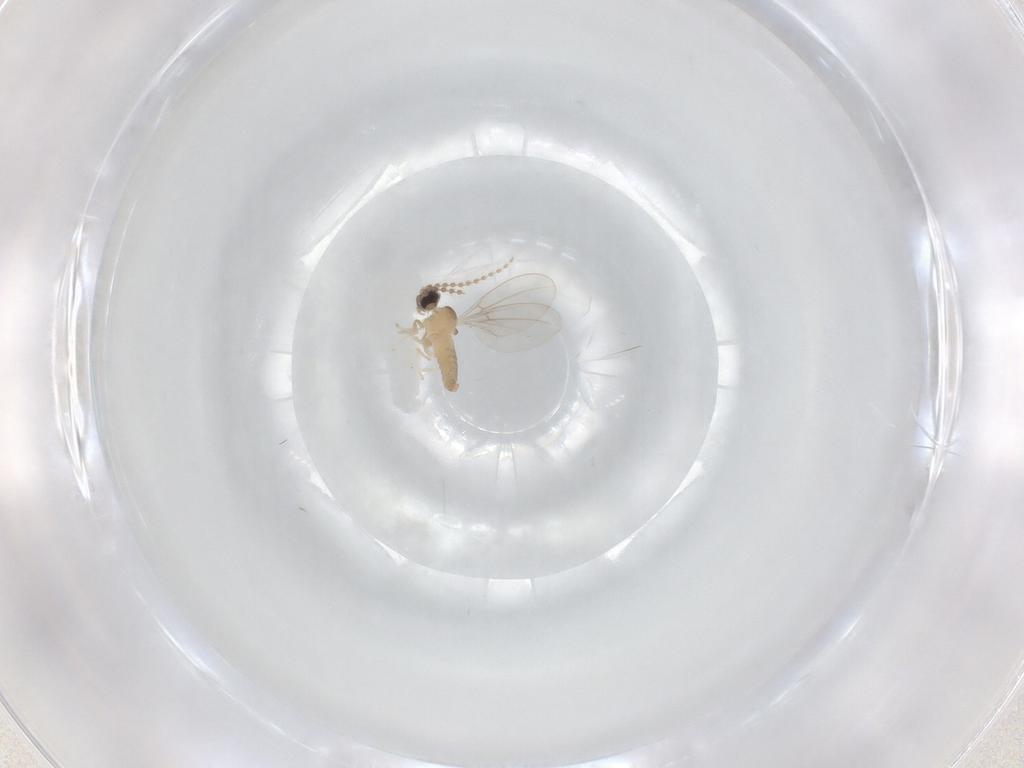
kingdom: Animalia
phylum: Arthropoda
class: Insecta
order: Diptera
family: Cecidomyiidae
